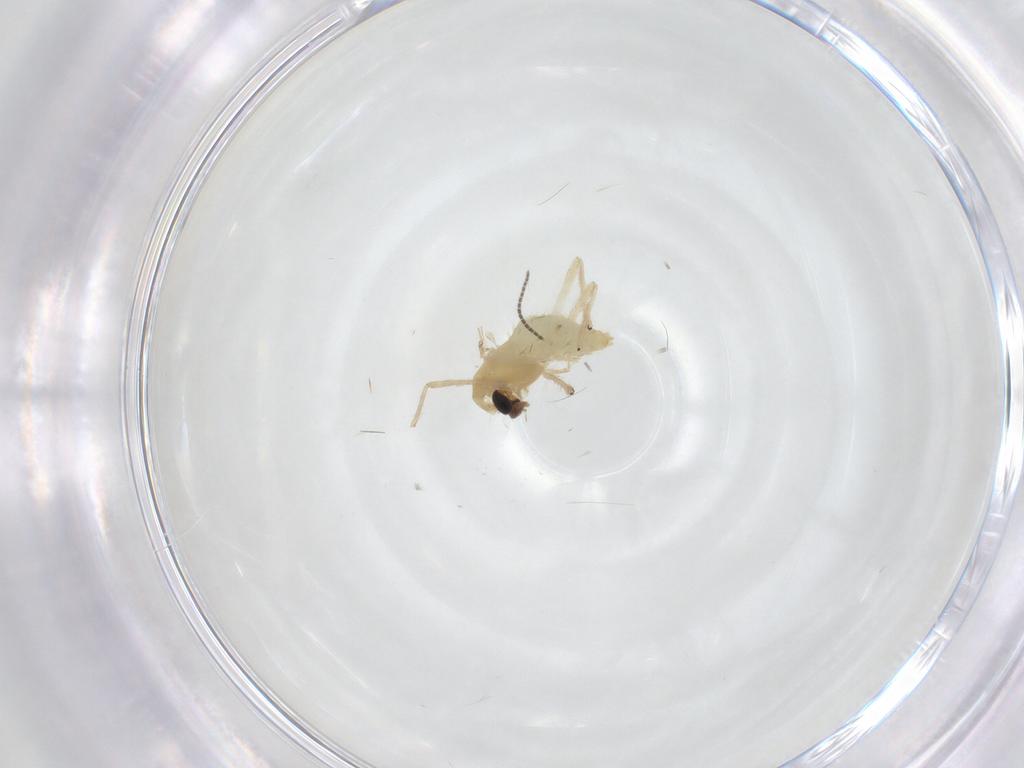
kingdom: Animalia
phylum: Arthropoda
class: Insecta
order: Diptera
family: Chironomidae
